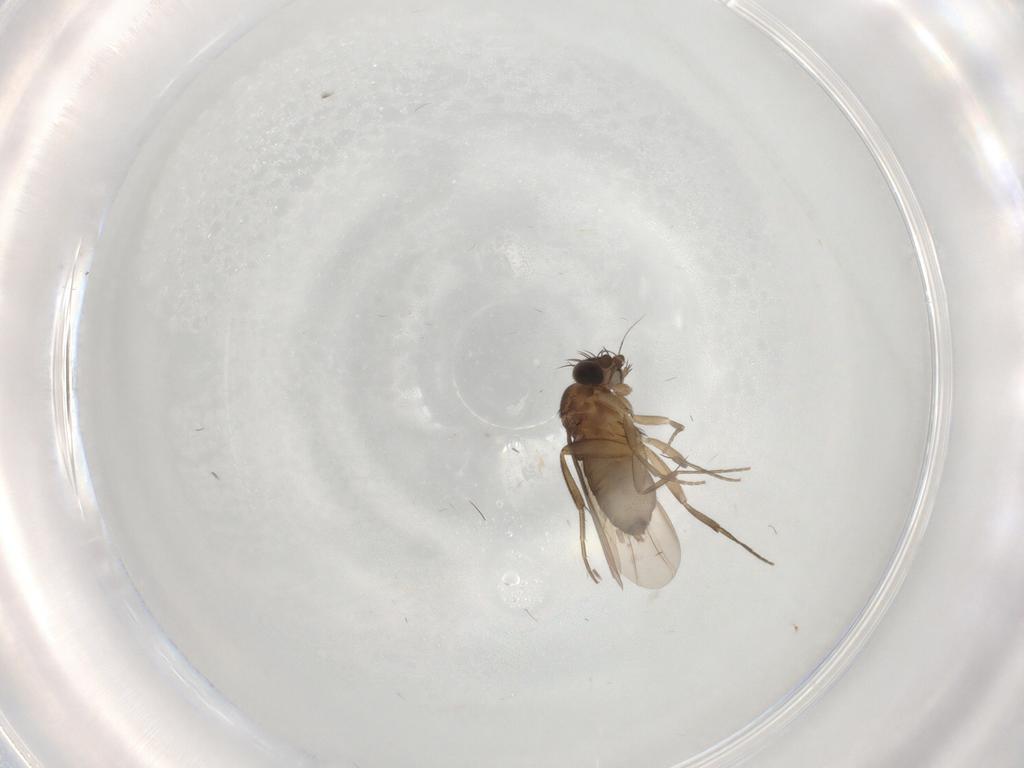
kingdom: Animalia
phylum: Arthropoda
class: Insecta
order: Diptera
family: Phoridae
